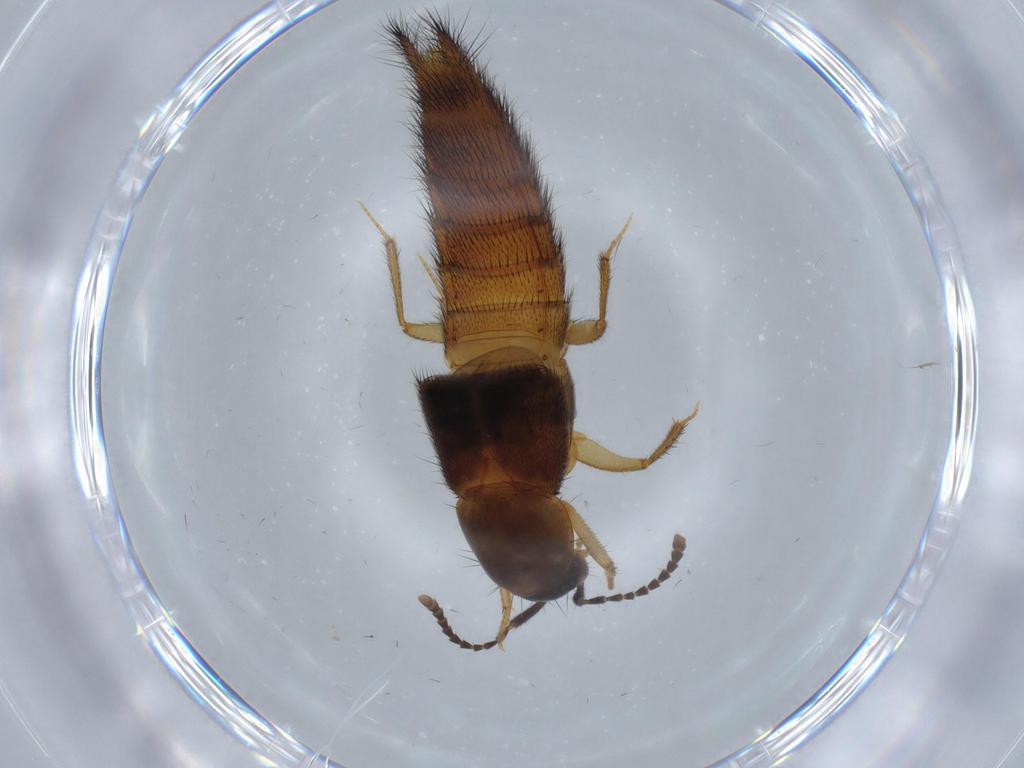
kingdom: Animalia
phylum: Arthropoda
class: Insecta
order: Coleoptera
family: Staphylinidae
